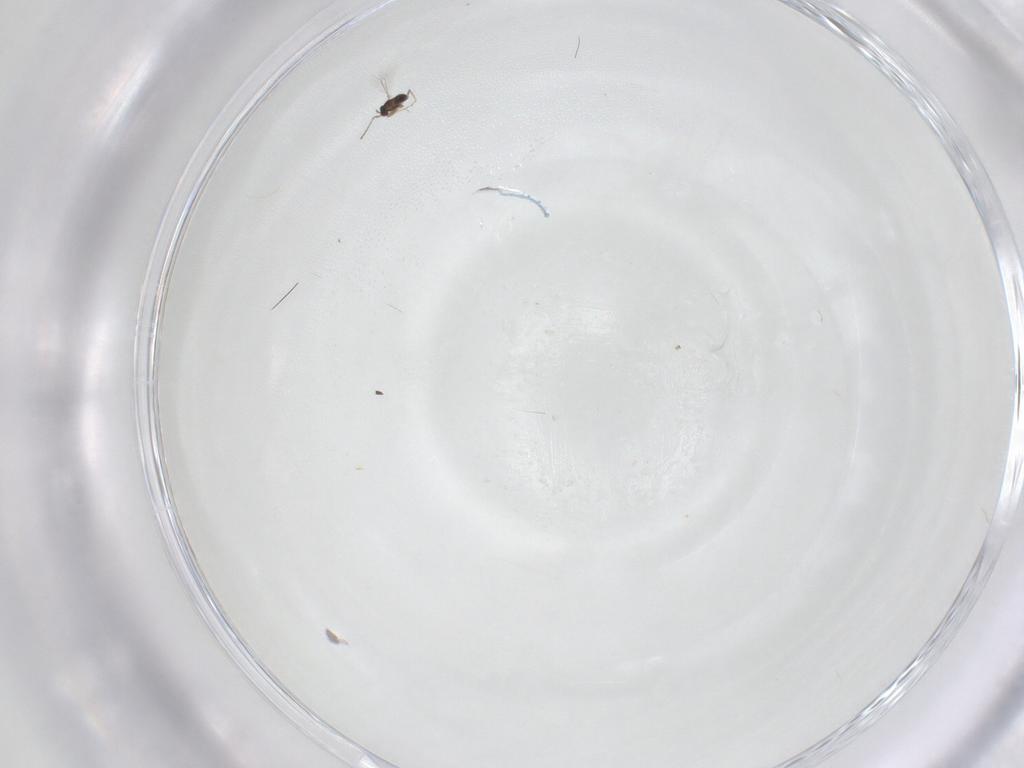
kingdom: Animalia
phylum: Arthropoda
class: Insecta
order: Hymenoptera
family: Mymaridae
